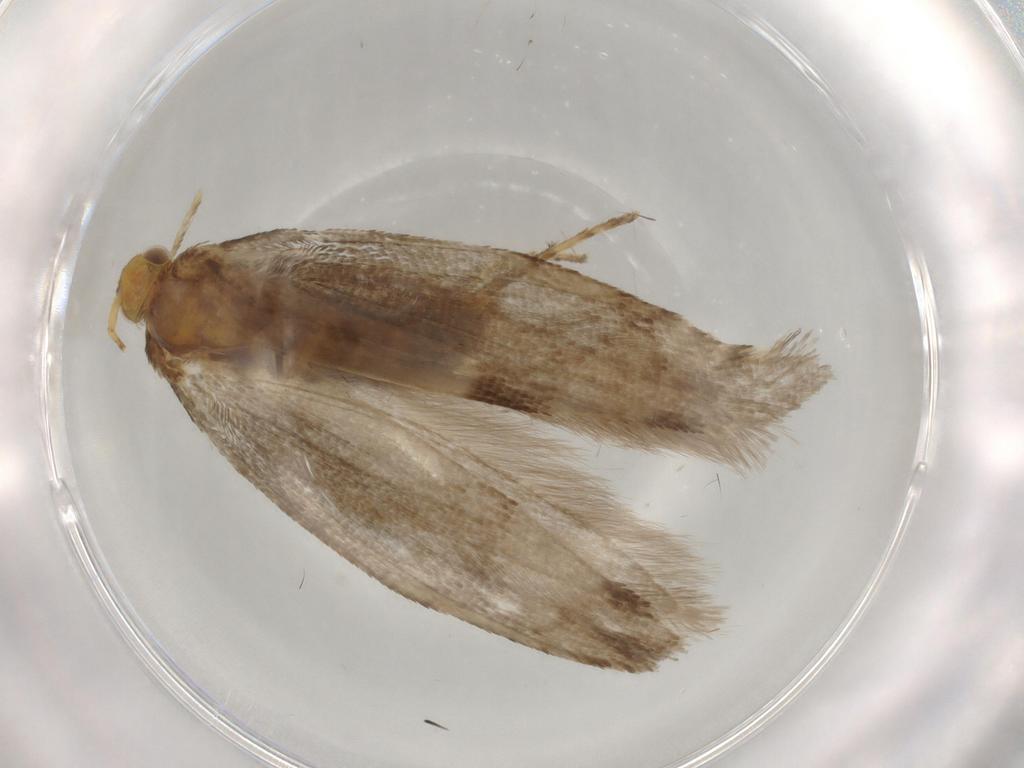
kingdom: Animalia
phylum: Arthropoda
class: Insecta
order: Lepidoptera
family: Argyresthiidae
